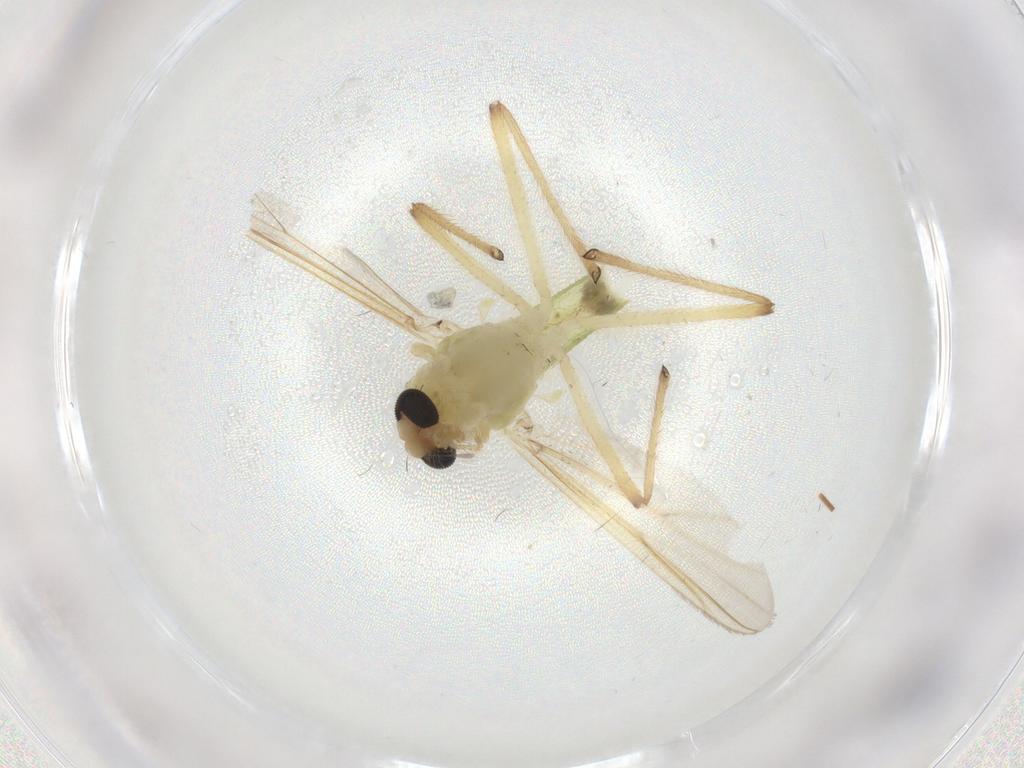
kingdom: Animalia
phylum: Arthropoda
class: Insecta
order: Diptera
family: Ceratopogonidae
